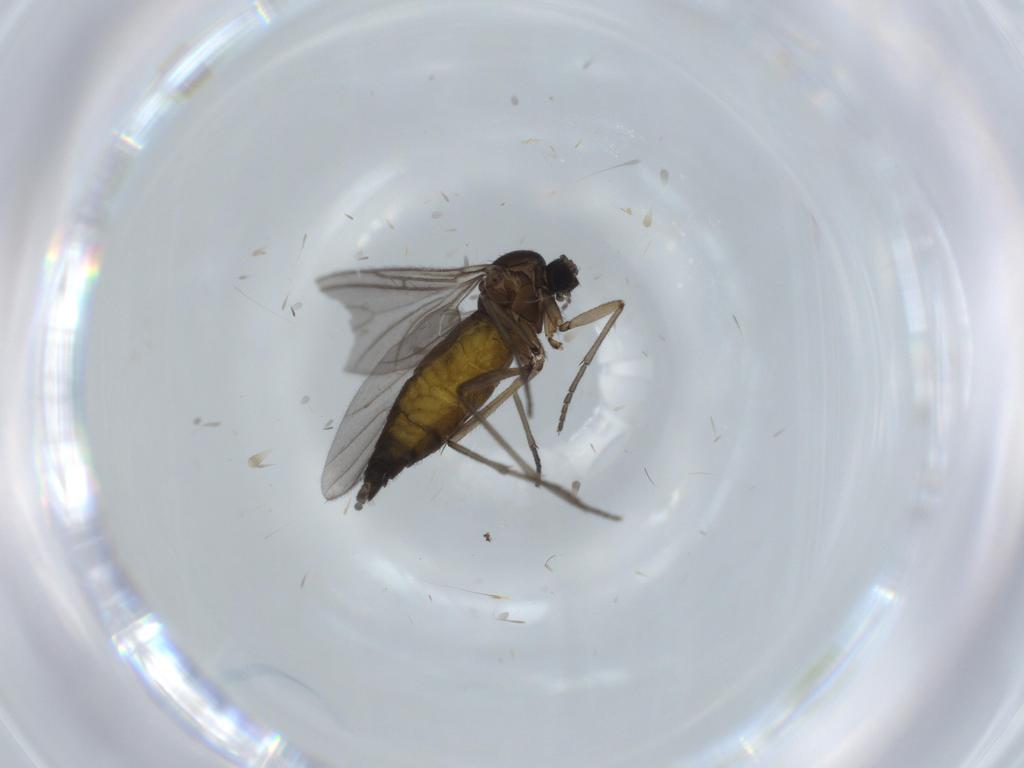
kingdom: Animalia
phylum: Arthropoda
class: Insecta
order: Diptera
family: Sciaridae
